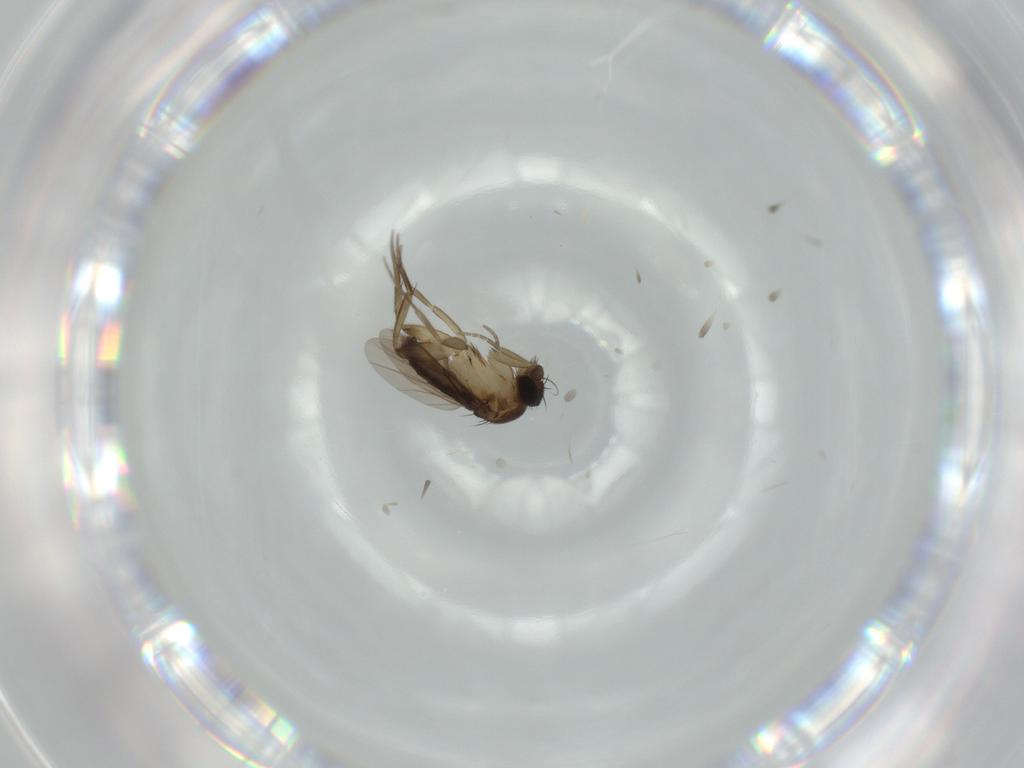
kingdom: Animalia
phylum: Arthropoda
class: Insecta
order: Diptera
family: Phoridae
